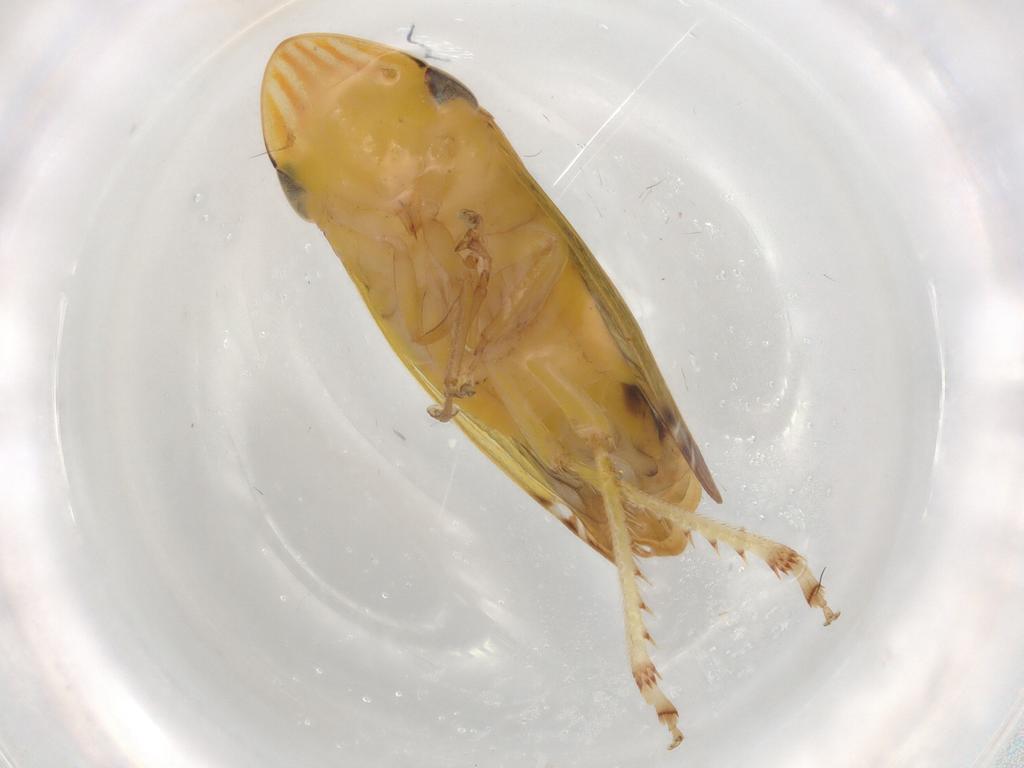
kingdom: Animalia
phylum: Arthropoda
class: Insecta
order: Hemiptera
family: Cicadellidae
